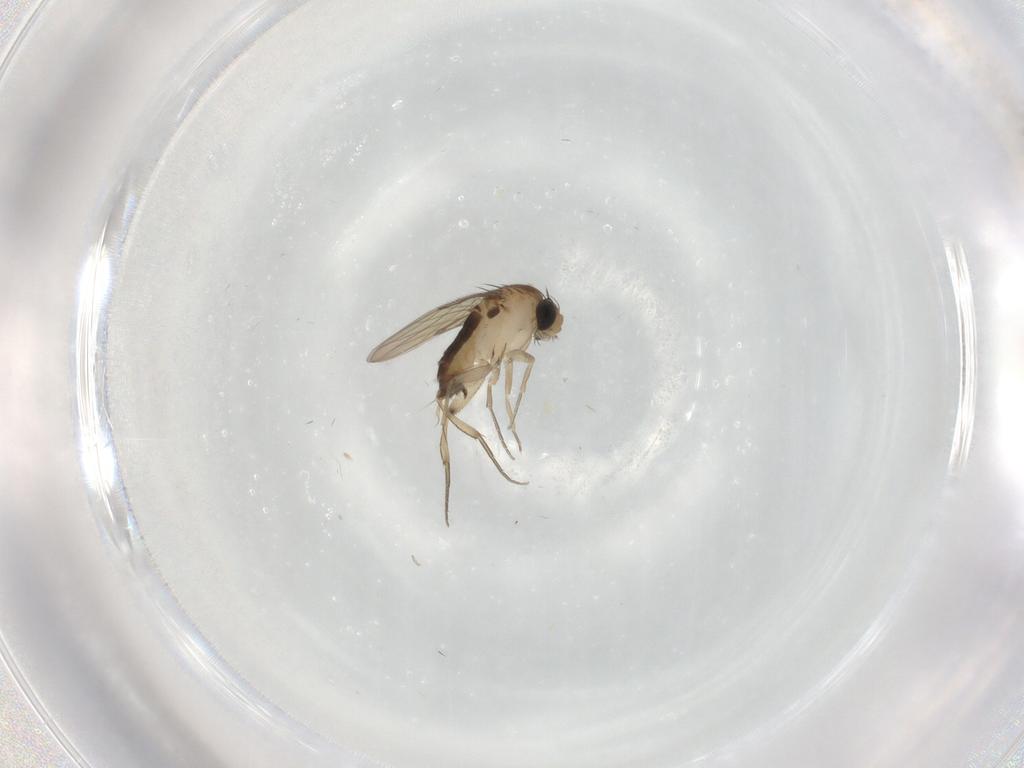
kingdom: Animalia
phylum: Arthropoda
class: Insecta
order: Diptera
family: Phoridae
